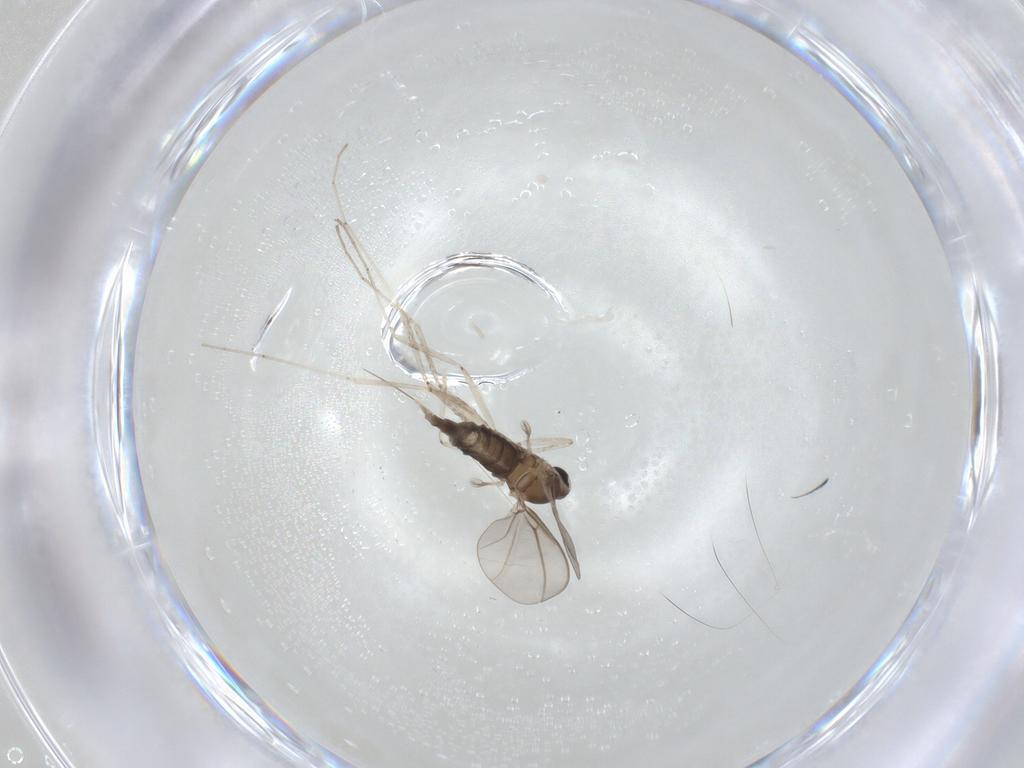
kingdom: Animalia
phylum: Arthropoda
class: Insecta
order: Diptera
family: Cecidomyiidae
